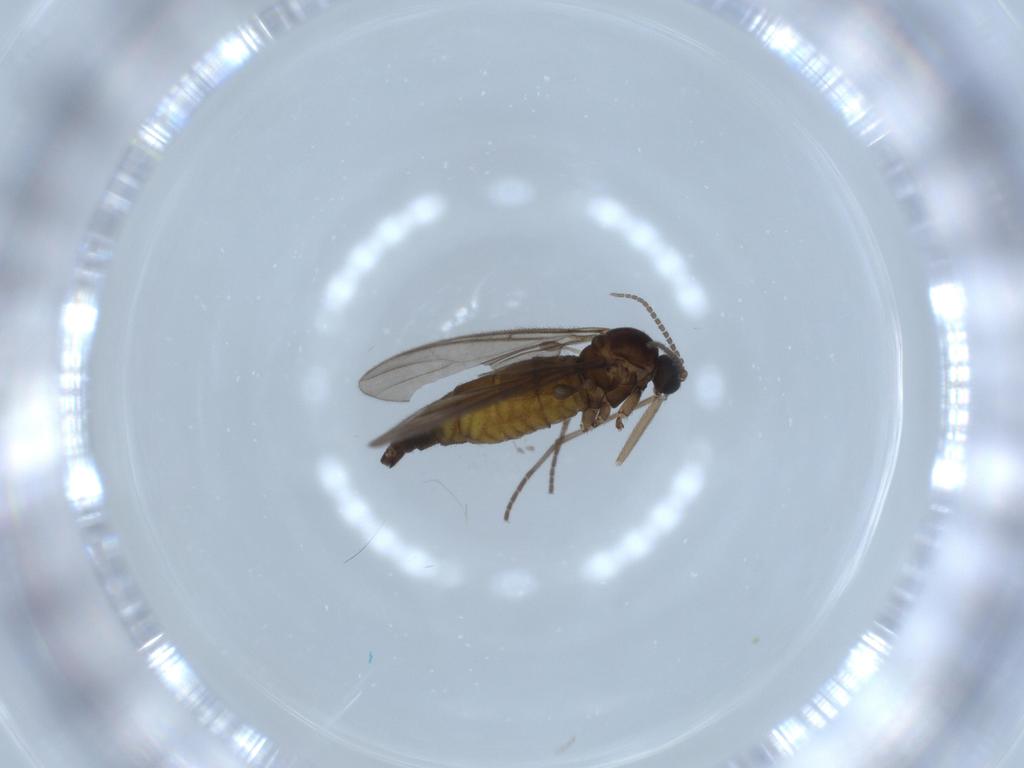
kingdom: Animalia
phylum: Arthropoda
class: Insecta
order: Diptera
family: Sciaridae
